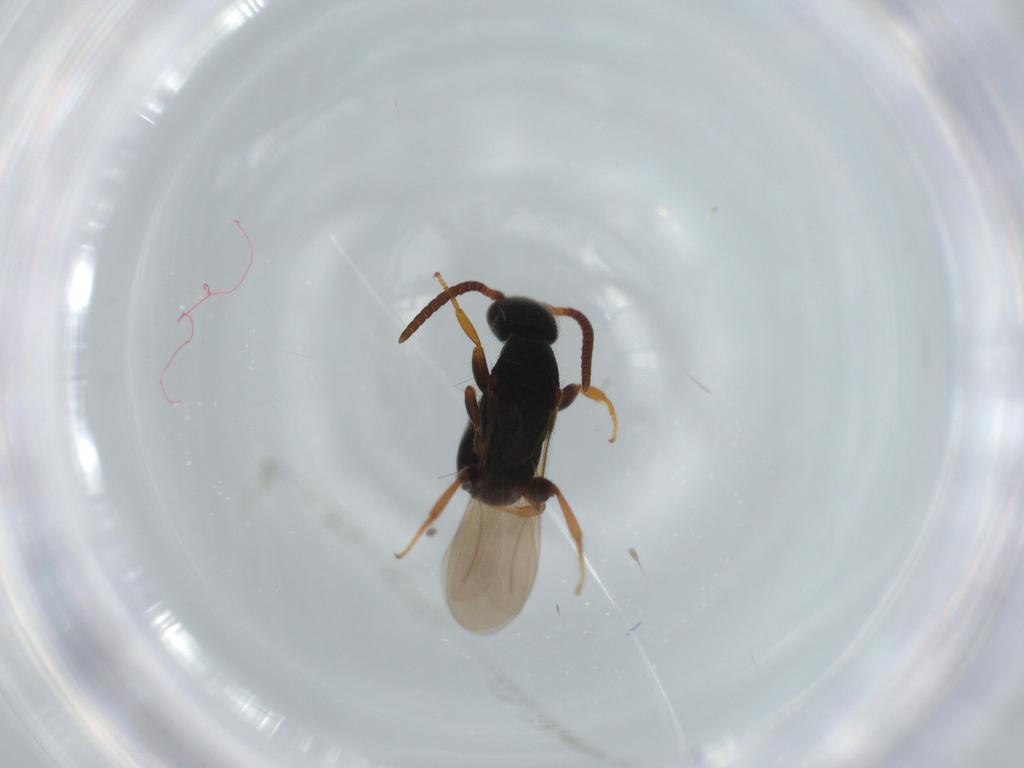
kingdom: Animalia
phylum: Arthropoda
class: Insecta
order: Hymenoptera
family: Bethylidae
